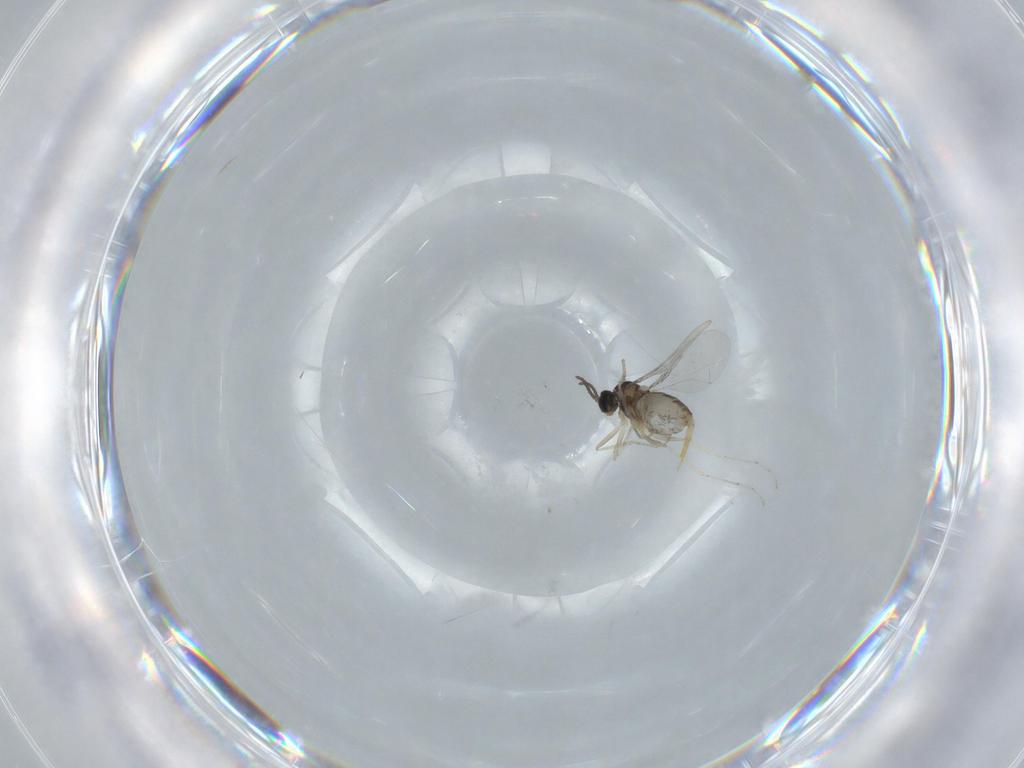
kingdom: Animalia
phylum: Arthropoda
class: Insecta
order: Diptera
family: Cecidomyiidae
